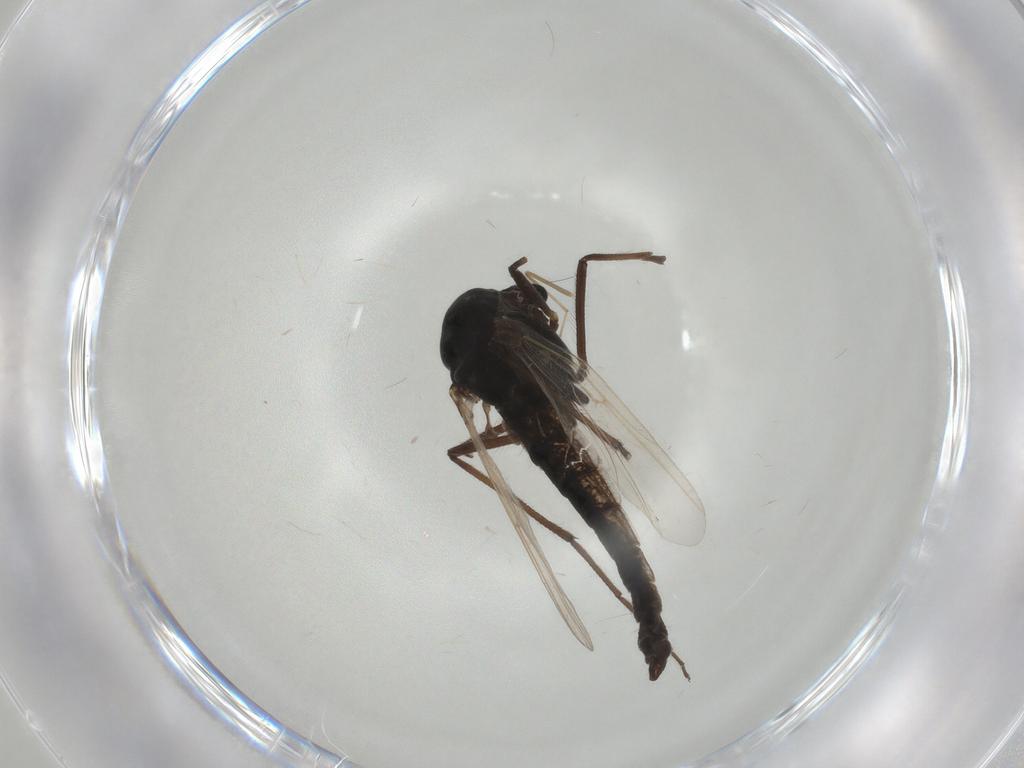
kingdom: Animalia
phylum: Arthropoda
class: Insecta
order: Diptera
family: Chironomidae
